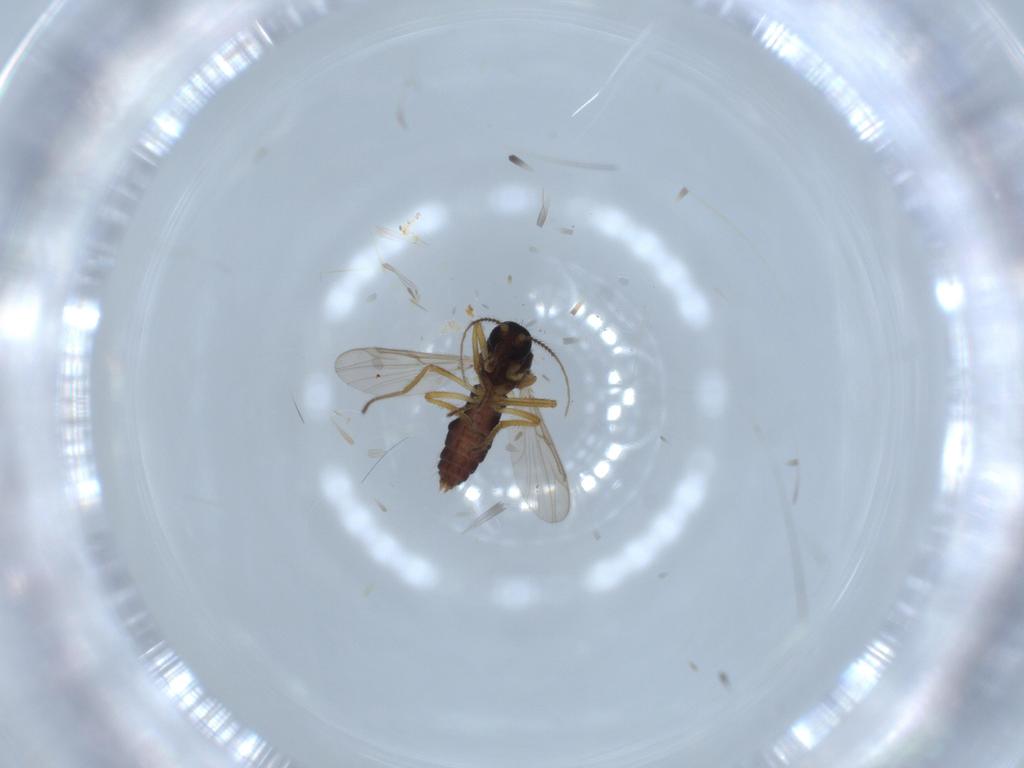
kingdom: Animalia
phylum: Arthropoda
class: Insecta
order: Diptera
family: Ceratopogonidae
